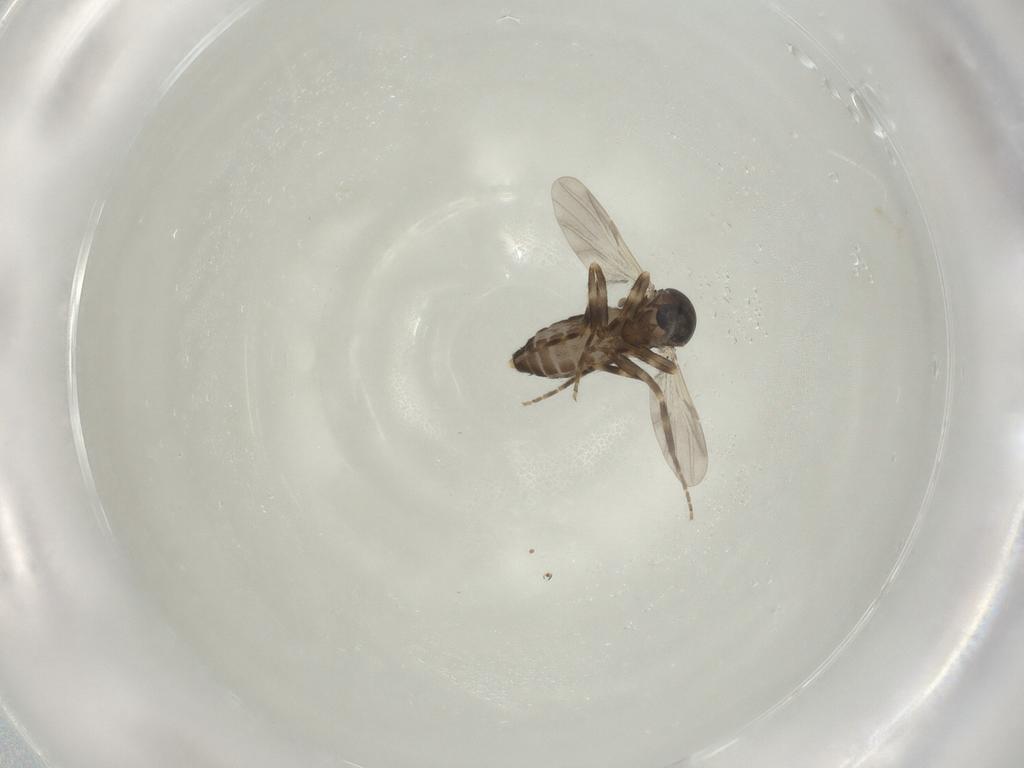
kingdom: Animalia
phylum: Arthropoda
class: Insecta
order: Diptera
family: Ceratopogonidae
